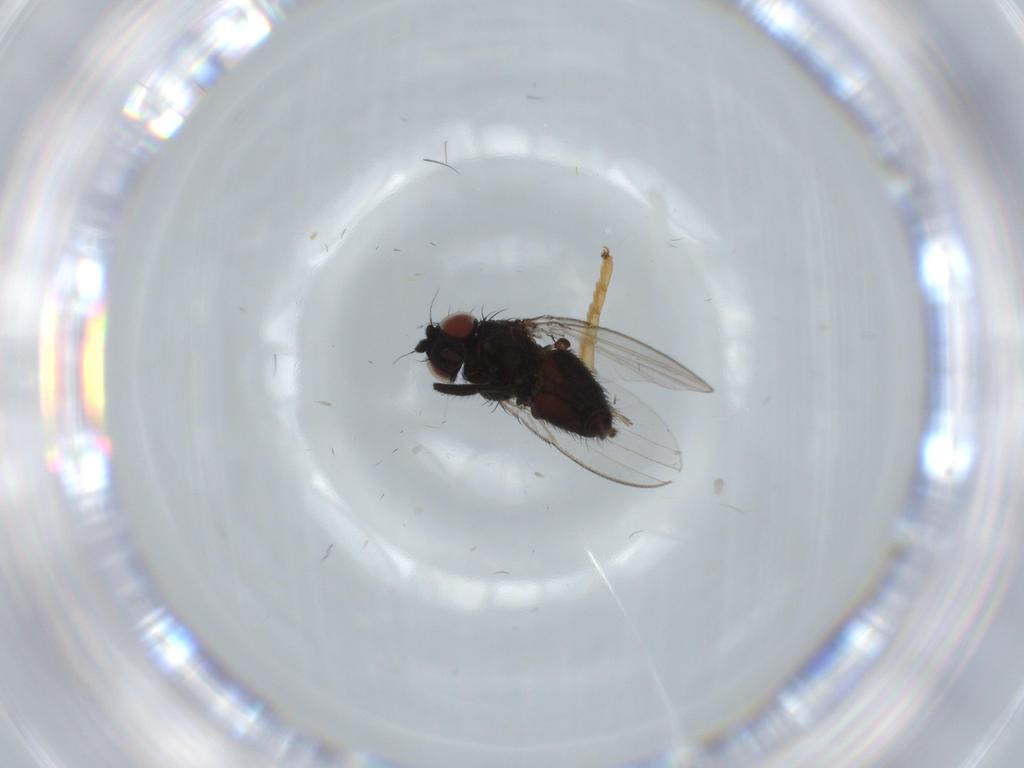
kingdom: Animalia
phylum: Arthropoda
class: Insecta
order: Diptera
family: Milichiidae
